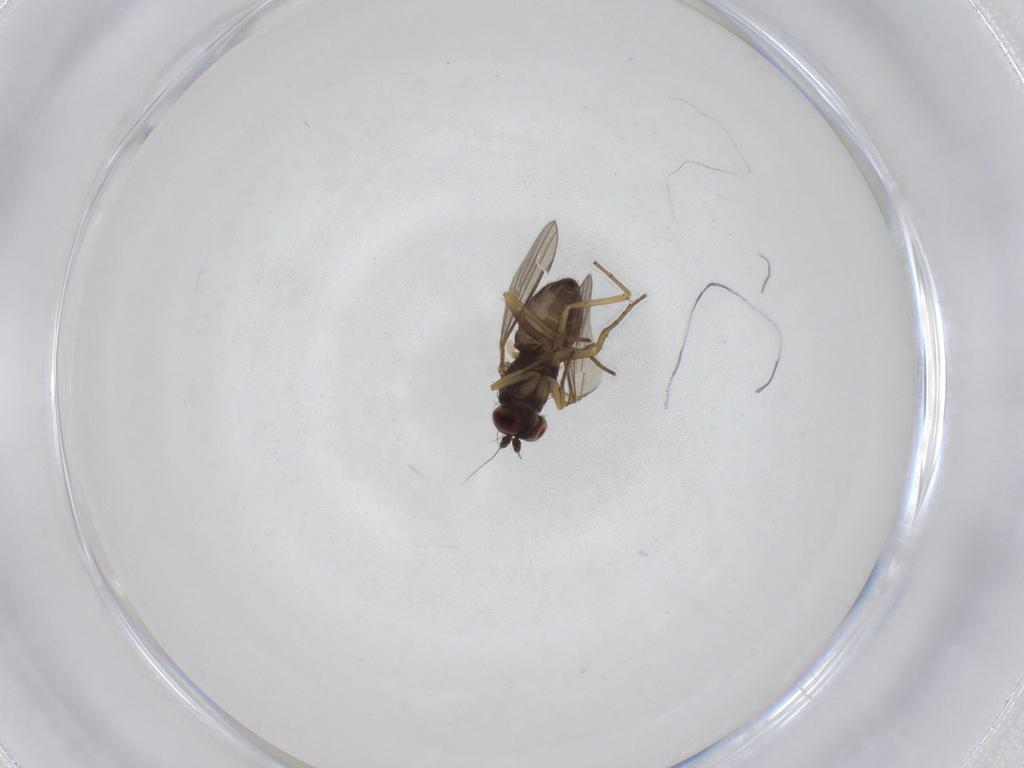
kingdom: Animalia
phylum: Arthropoda
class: Insecta
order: Diptera
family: Dolichopodidae
